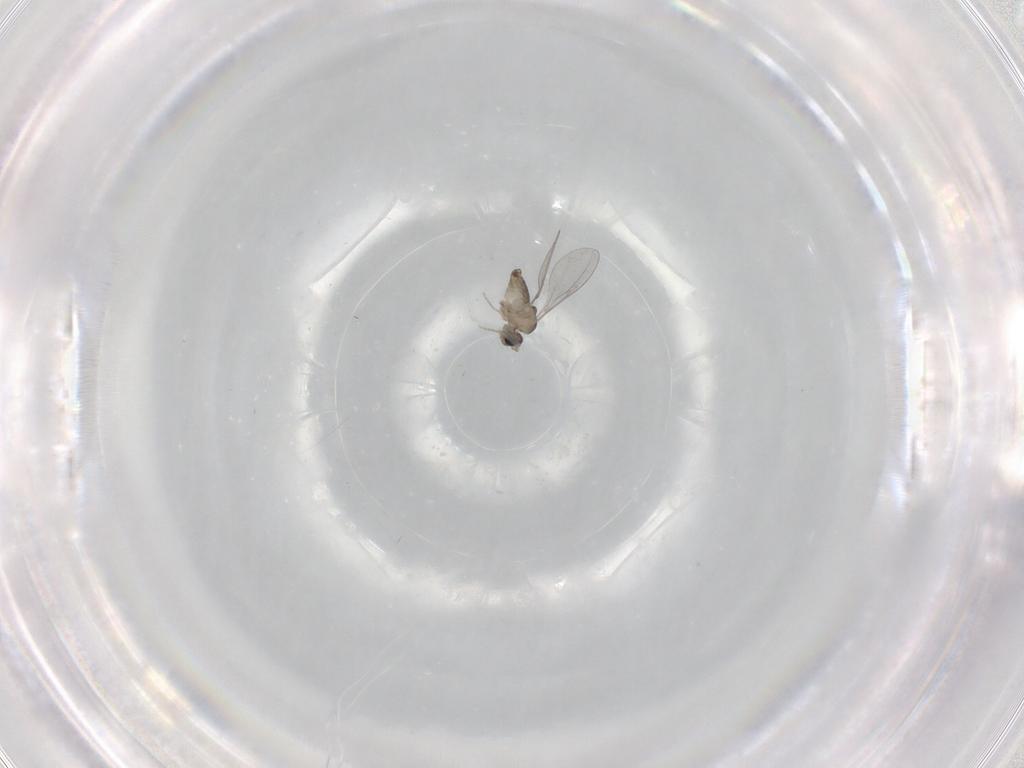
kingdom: Animalia
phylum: Arthropoda
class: Insecta
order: Diptera
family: Cecidomyiidae
